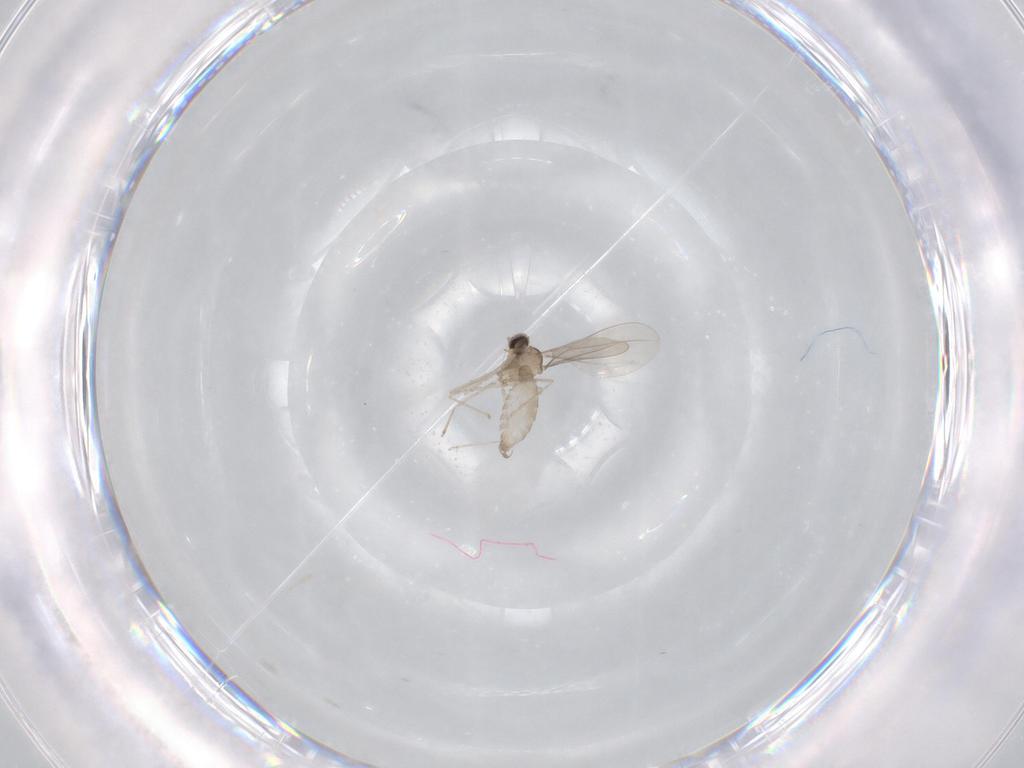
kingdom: Animalia
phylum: Arthropoda
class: Insecta
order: Diptera
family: Cecidomyiidae
